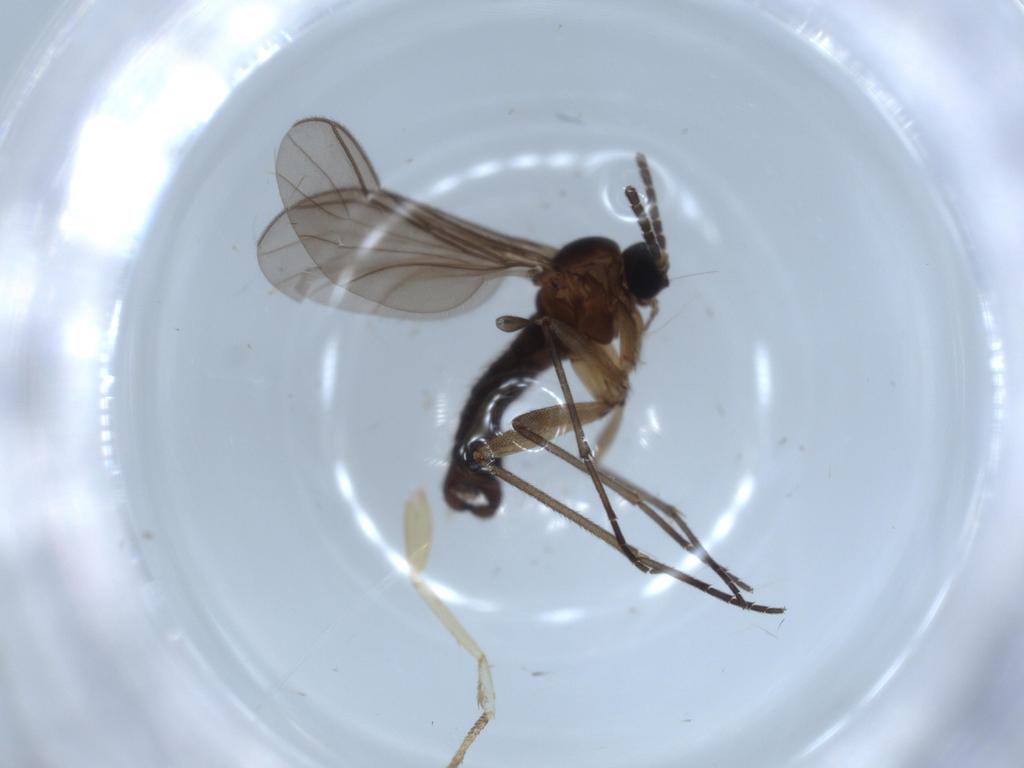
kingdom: Animalia
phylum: Arthropoda
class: Insecta
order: Diptera
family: Sciaridae
